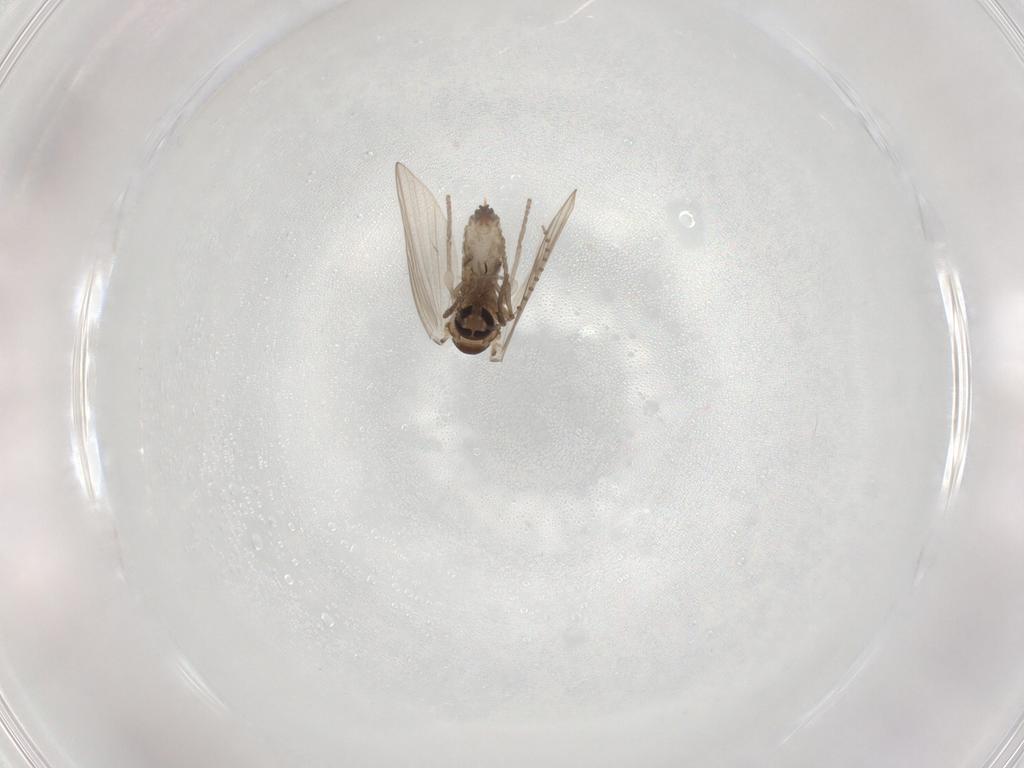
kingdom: Animalia
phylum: Arthropoda
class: Insecta
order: Diptera
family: Psychodidae
